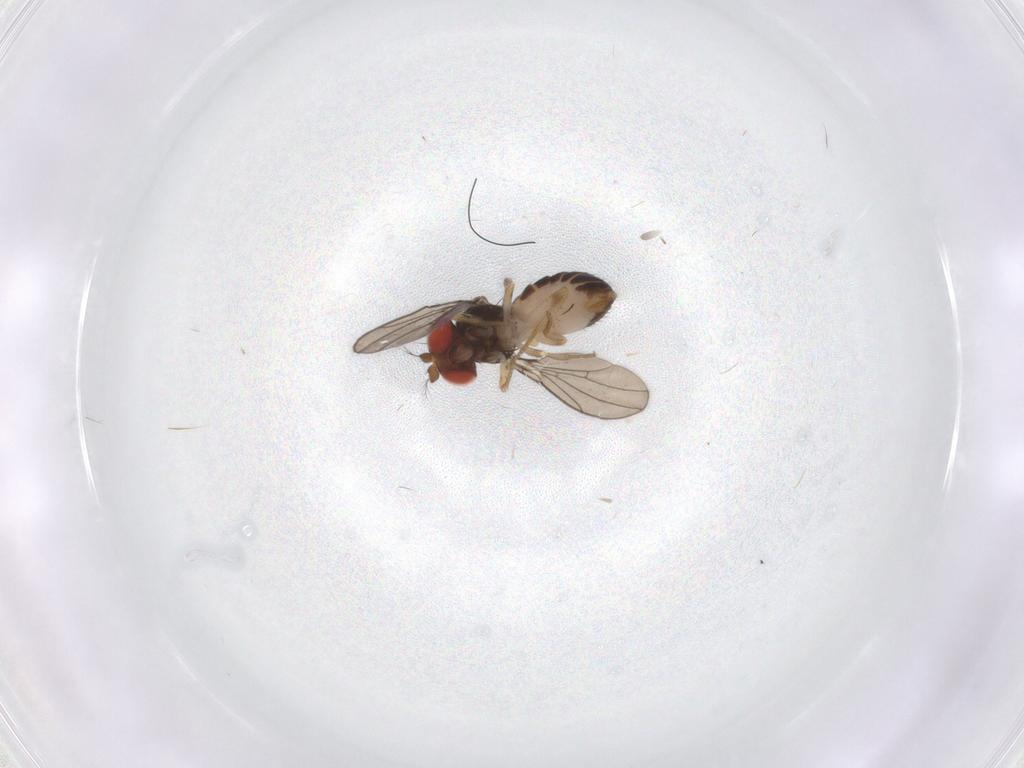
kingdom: Animalia
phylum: Arthropoda
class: Insecta
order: Diptera
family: Drosophilidae
